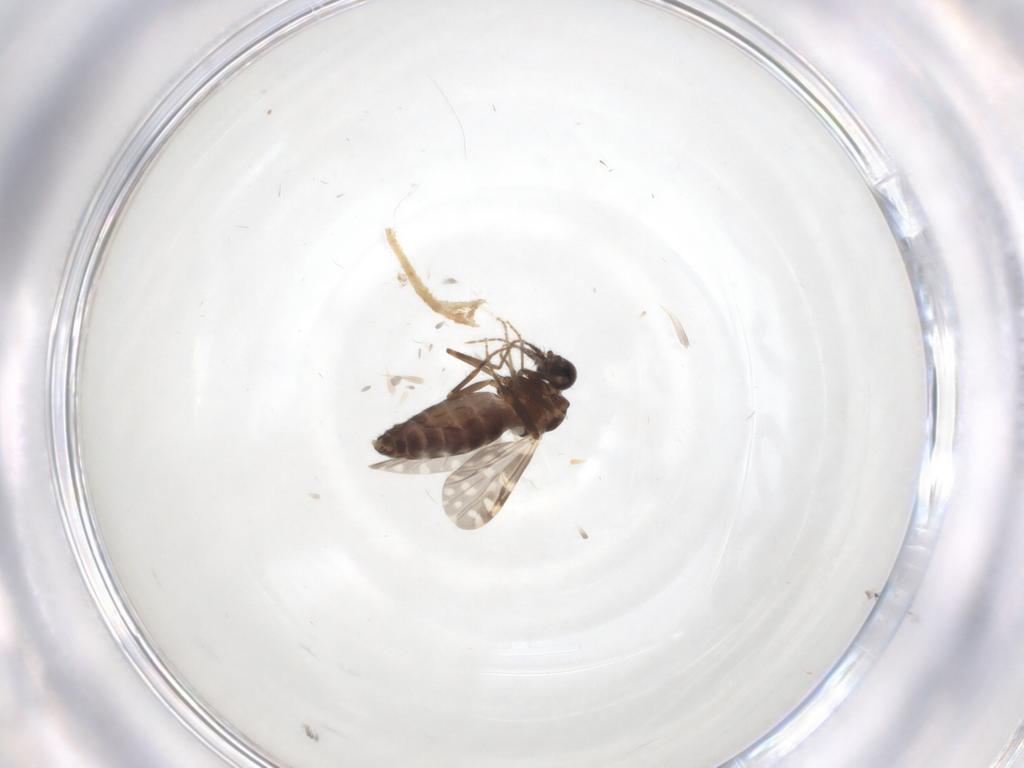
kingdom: Animalia
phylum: Arthropoda
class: Insecta
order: Diptera
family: Ceratopogonidae
